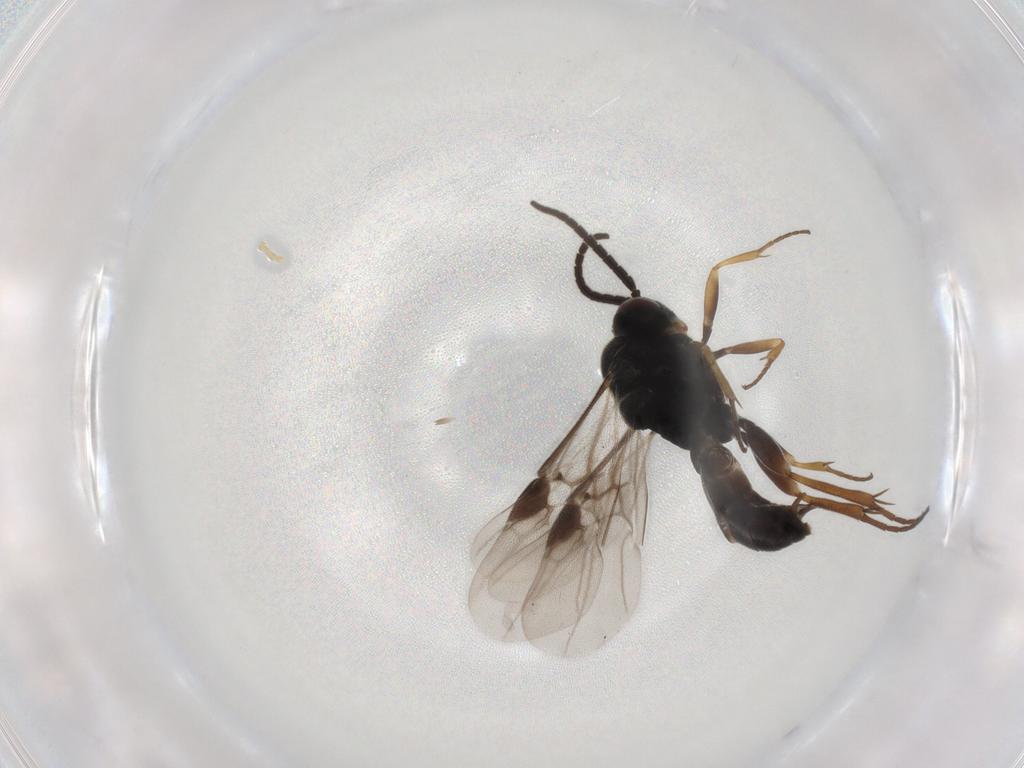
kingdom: Animalia
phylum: Arthropoda
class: Insecta
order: Hymenoptera
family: Braconidae
